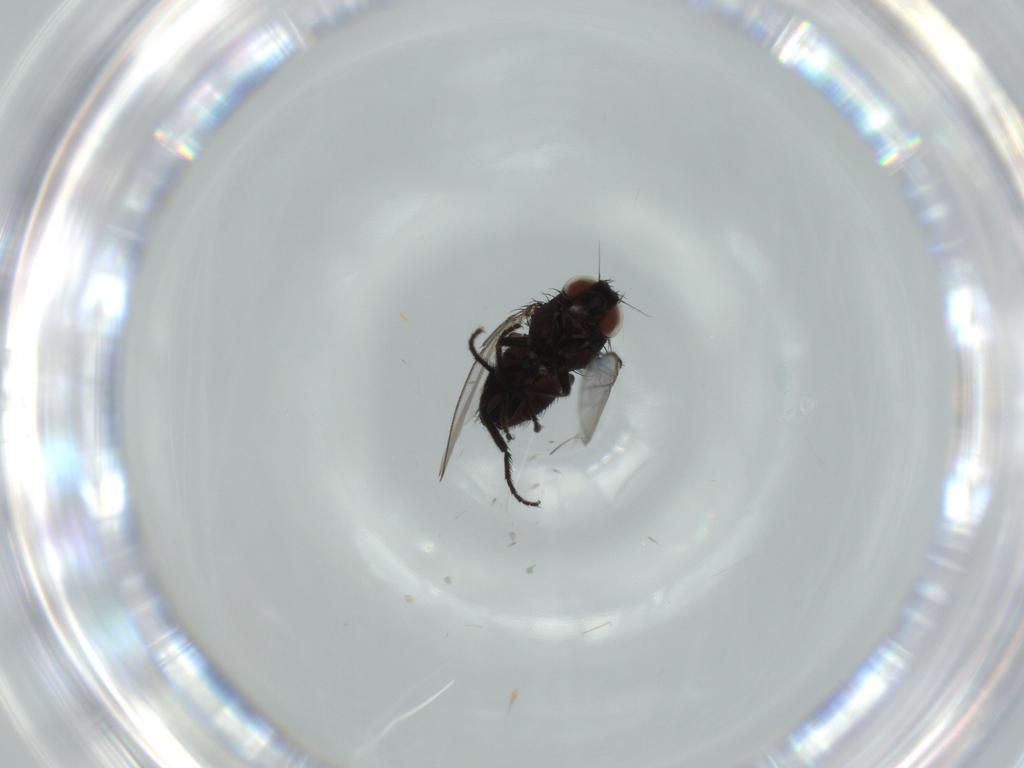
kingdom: Animalia
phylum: Arthropoda
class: Insecta
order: Diptera
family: Milichiidae
